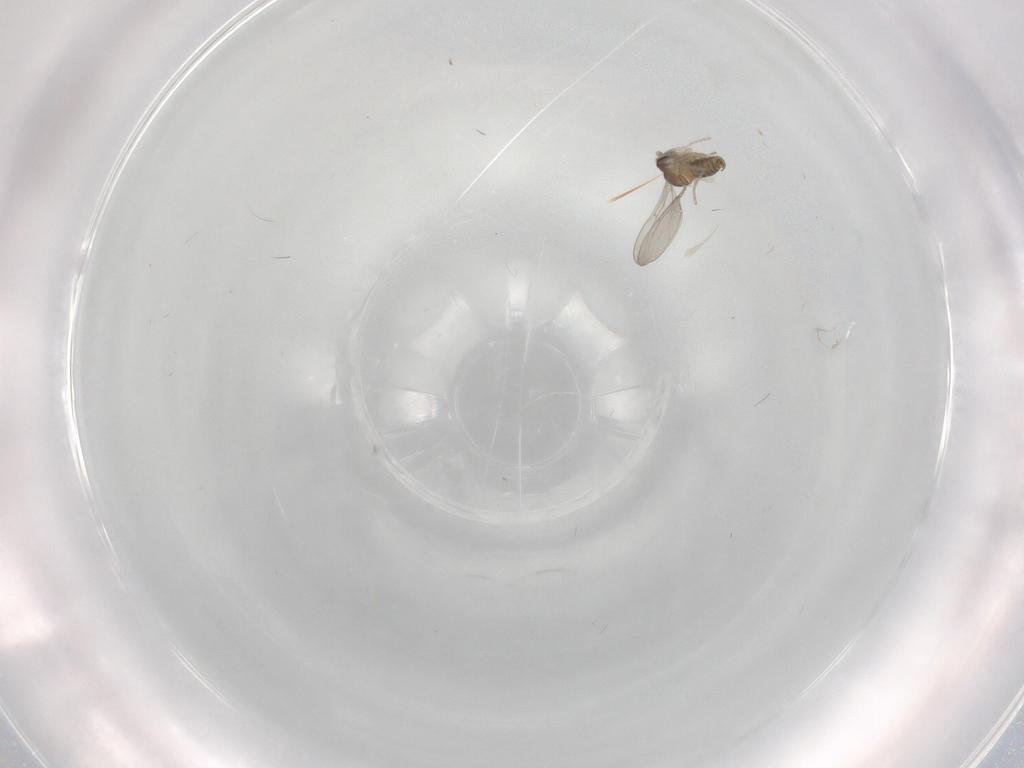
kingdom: Animalia
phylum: Arthropoda
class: Insecta
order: Diptera
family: Cecidomyiidae
